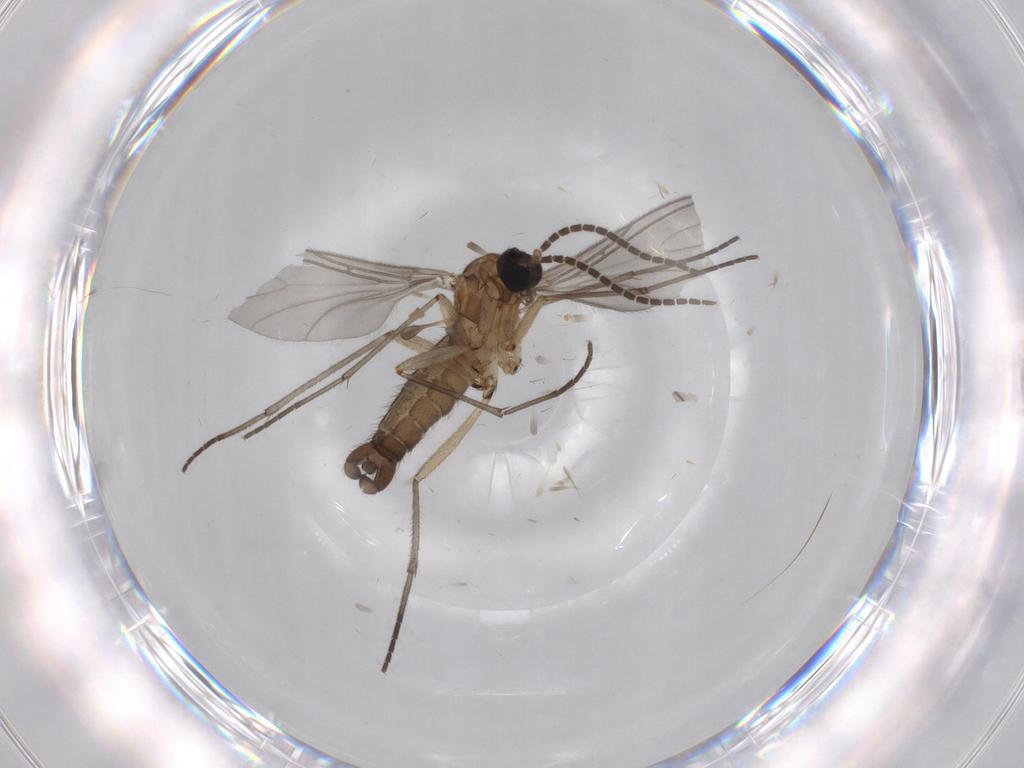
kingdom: Animalia
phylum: Arthropoda
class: Insecta
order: Diptera
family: Sciaridae
